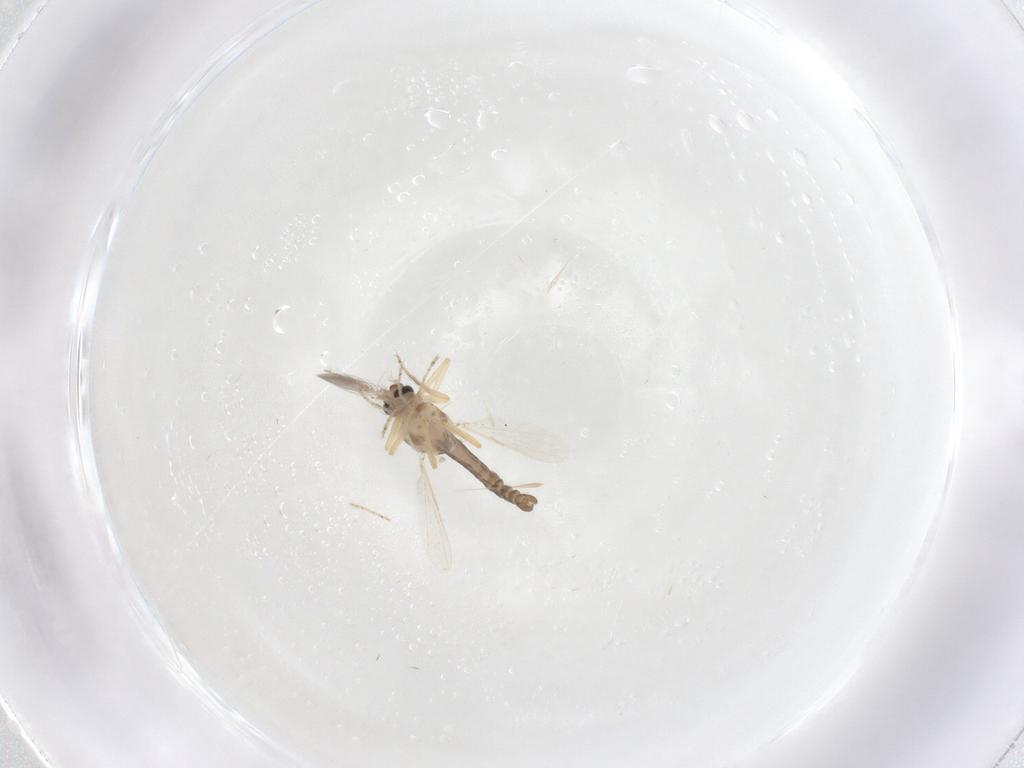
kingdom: Animalia
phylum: Arthropoda
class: Insecta
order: Diptera
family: Ceratopogonidae
